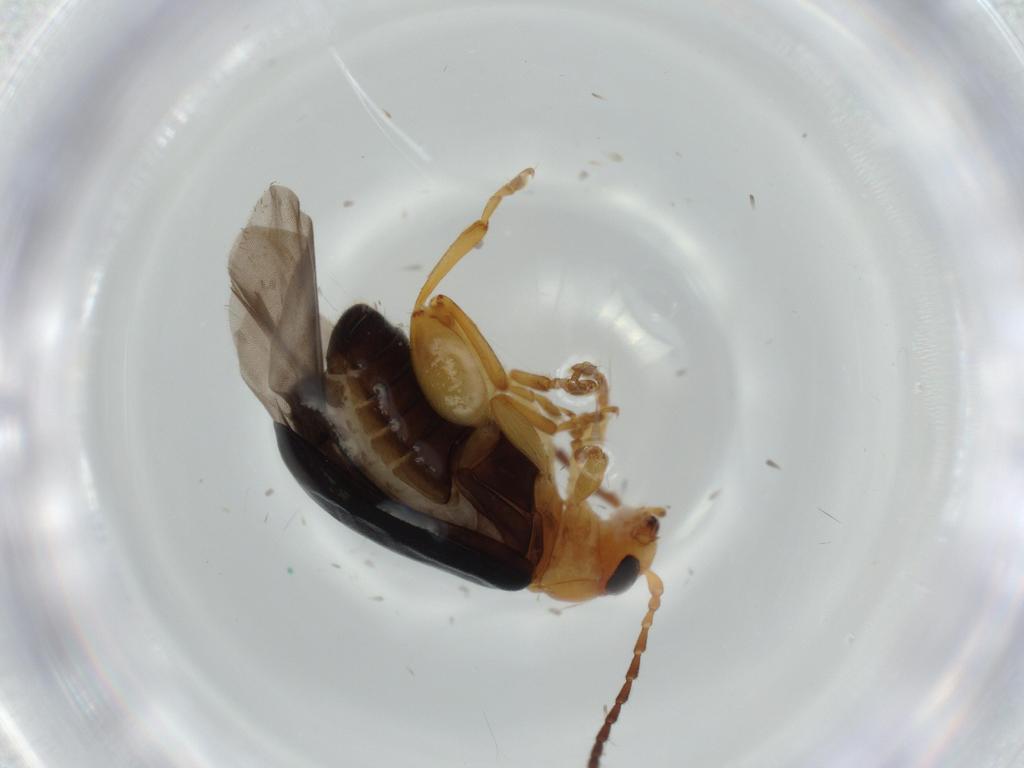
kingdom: Animalia
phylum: Arthropoda
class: Insecta
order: Coleoptera
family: Chrysomelidae
